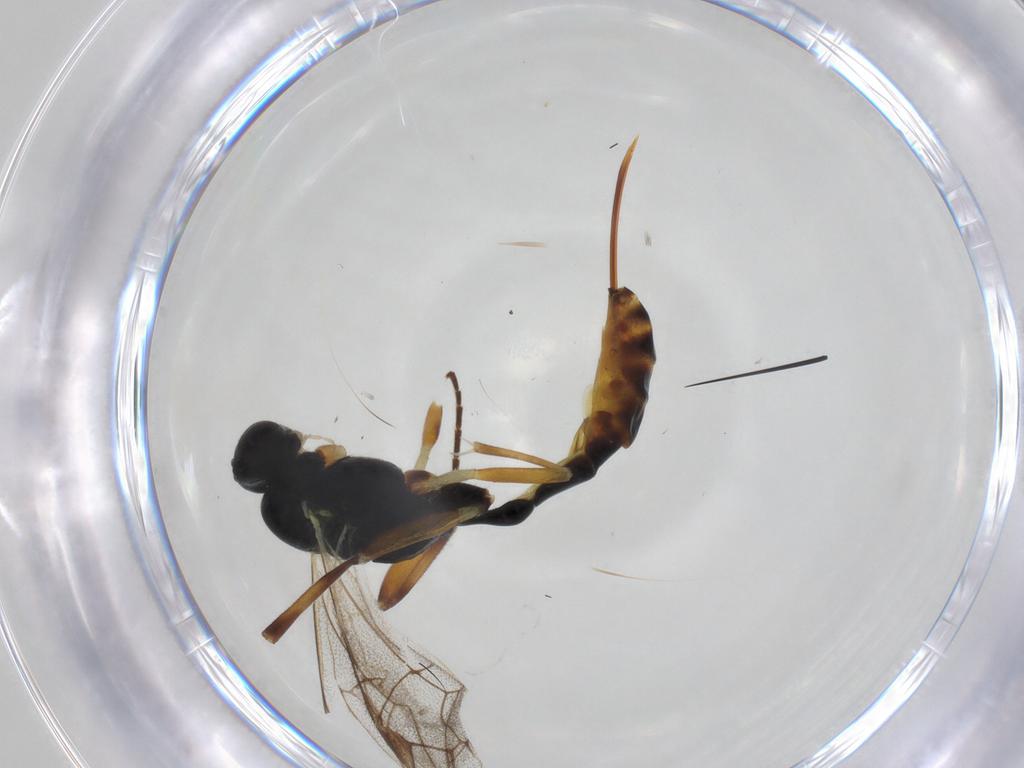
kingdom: Animalia
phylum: Arthropoda
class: Insecta
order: Hymenoptera
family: Ichneumonidae
